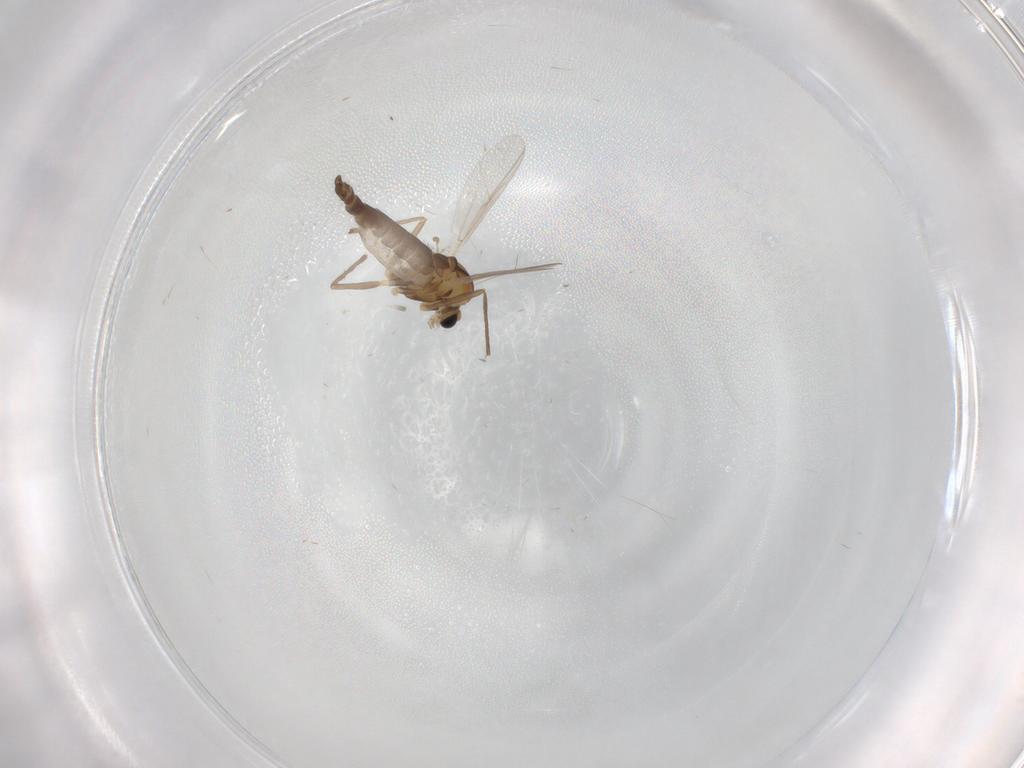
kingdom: Animalia
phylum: Arthropoda
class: Insecta
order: Diptera
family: Chironomidae
